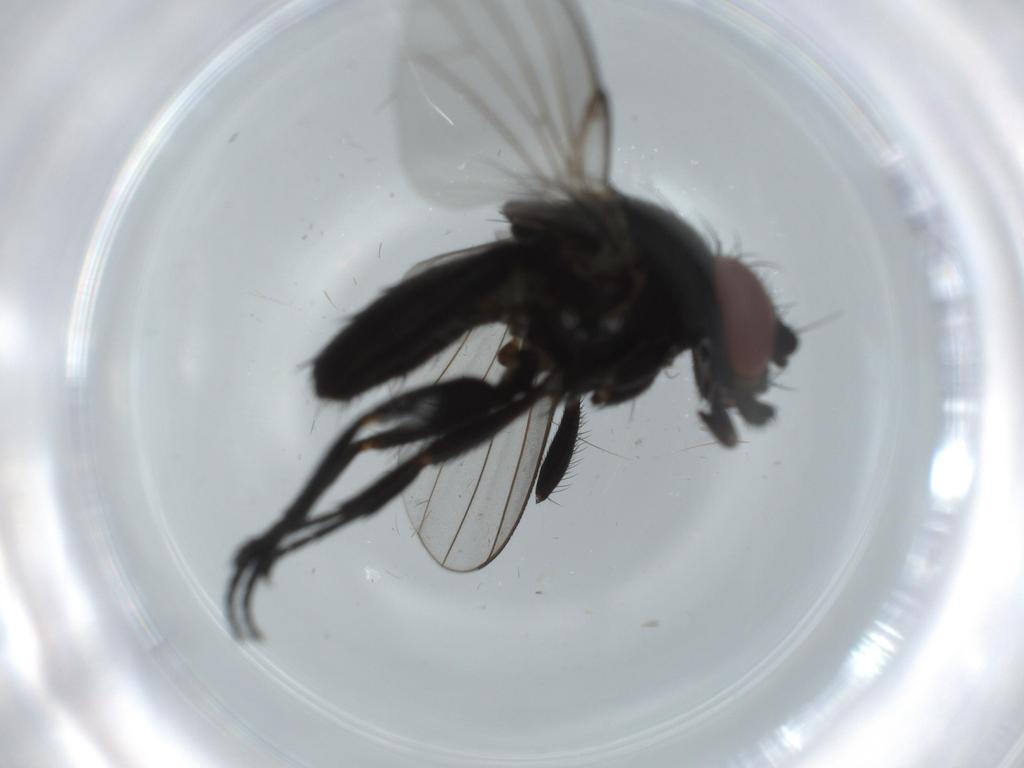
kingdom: Animalia
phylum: Arthropoda
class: Insecta
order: Diptera
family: Milichiidae
